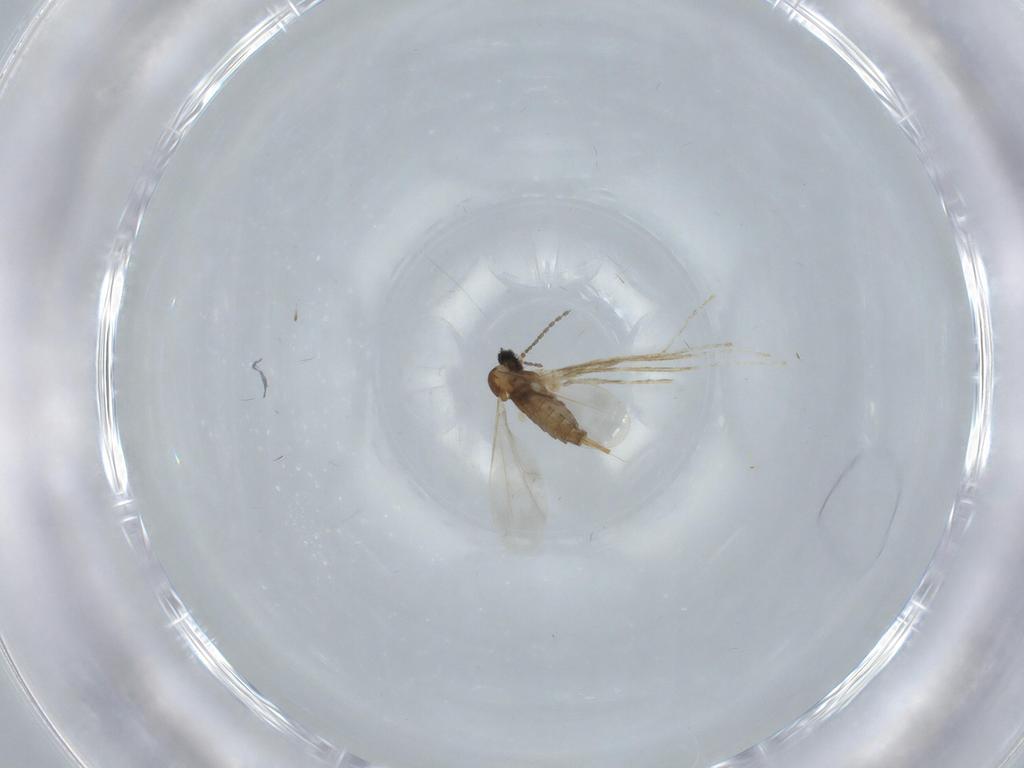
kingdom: Animalia
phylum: Arthropoda
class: Insecta
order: Diptera
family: Cecidomyiidae
